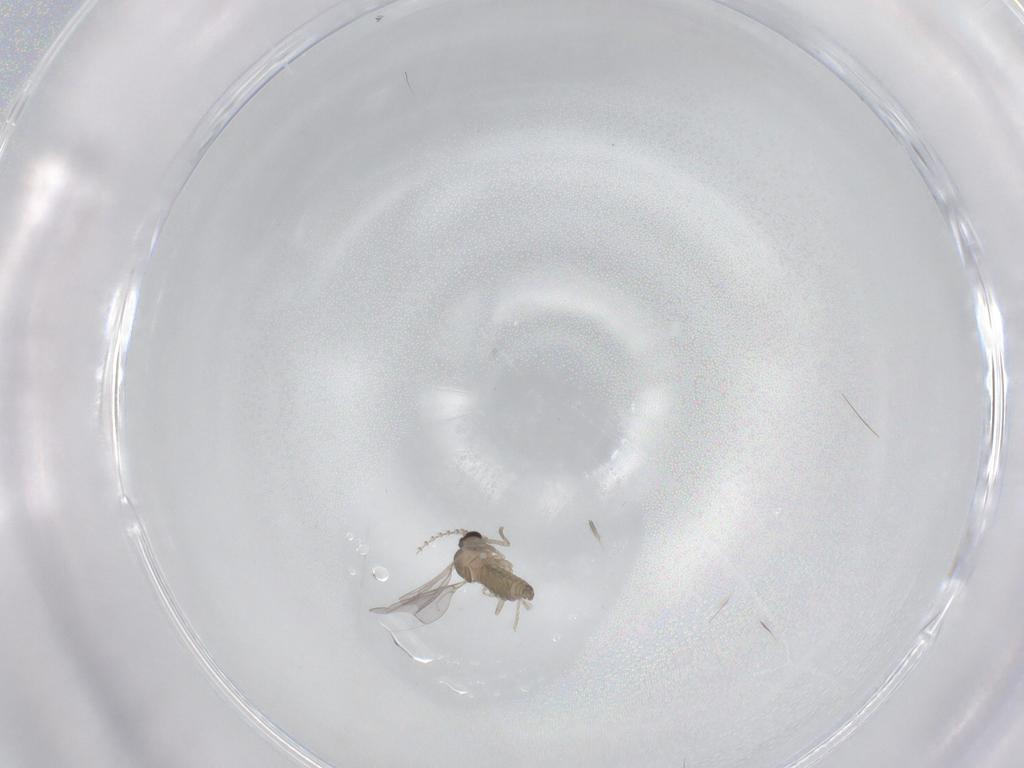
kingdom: Animalia
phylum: Arthropoda
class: Insecta
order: Diptera
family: Cecidomyiidae
